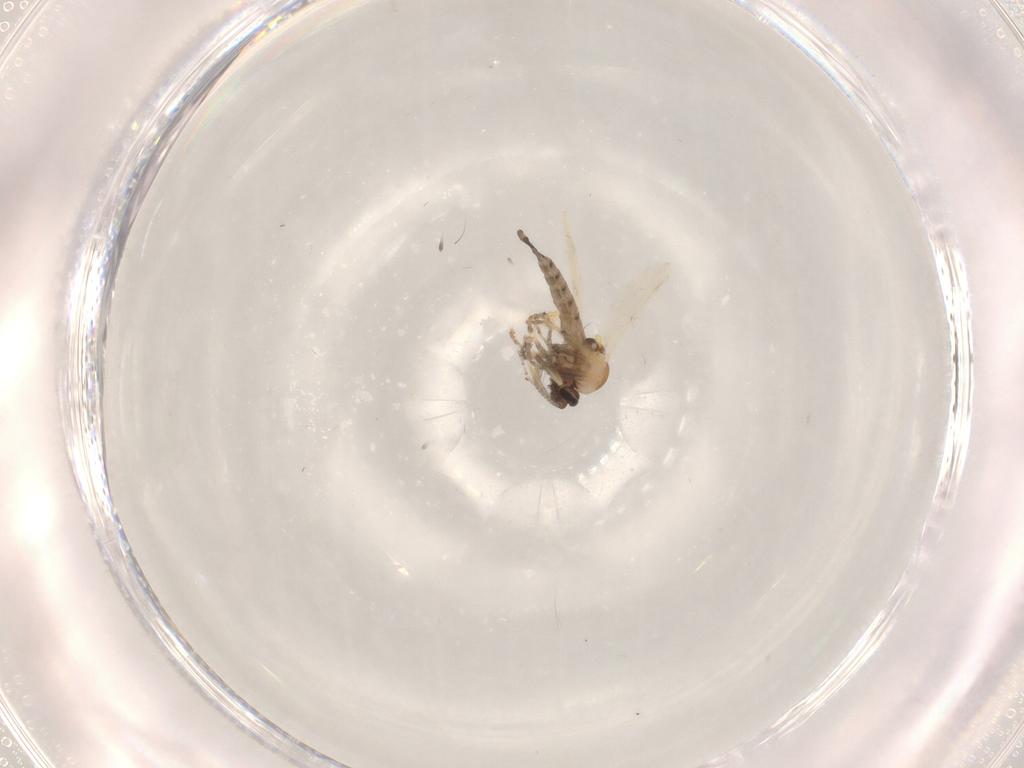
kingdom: Animalia
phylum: Arthropoda
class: Insecta
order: Diptera
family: Ceratopogonidae
